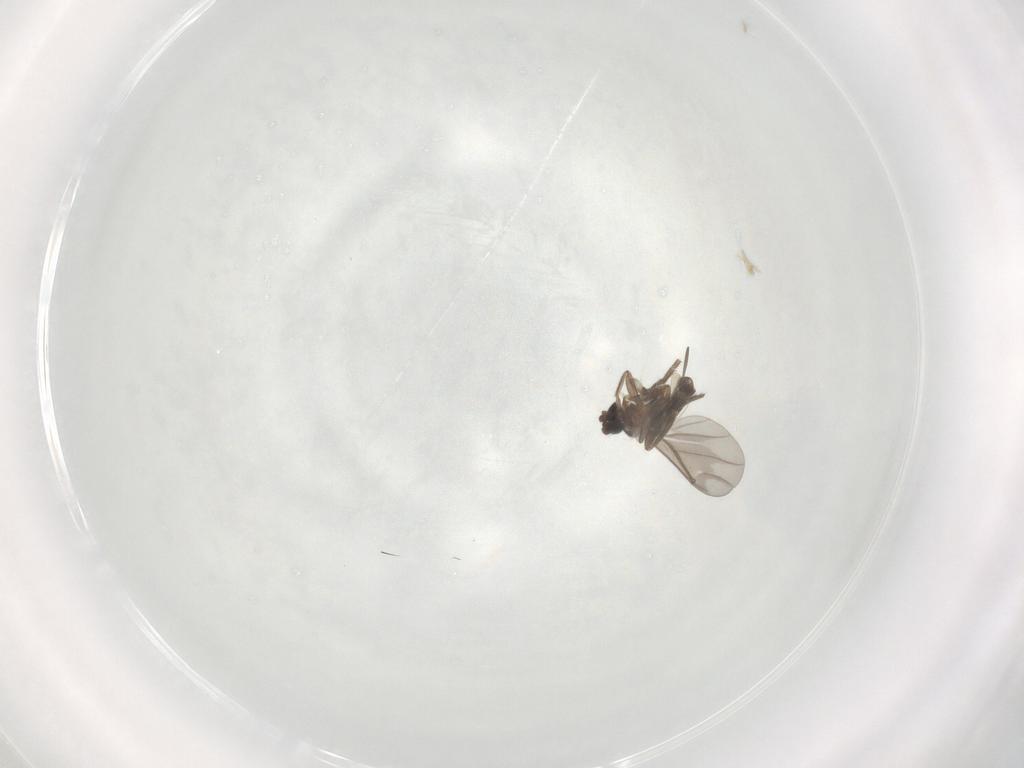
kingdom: Animalia
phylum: Arthropoda
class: Insecta
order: Diptera
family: Phoridae
